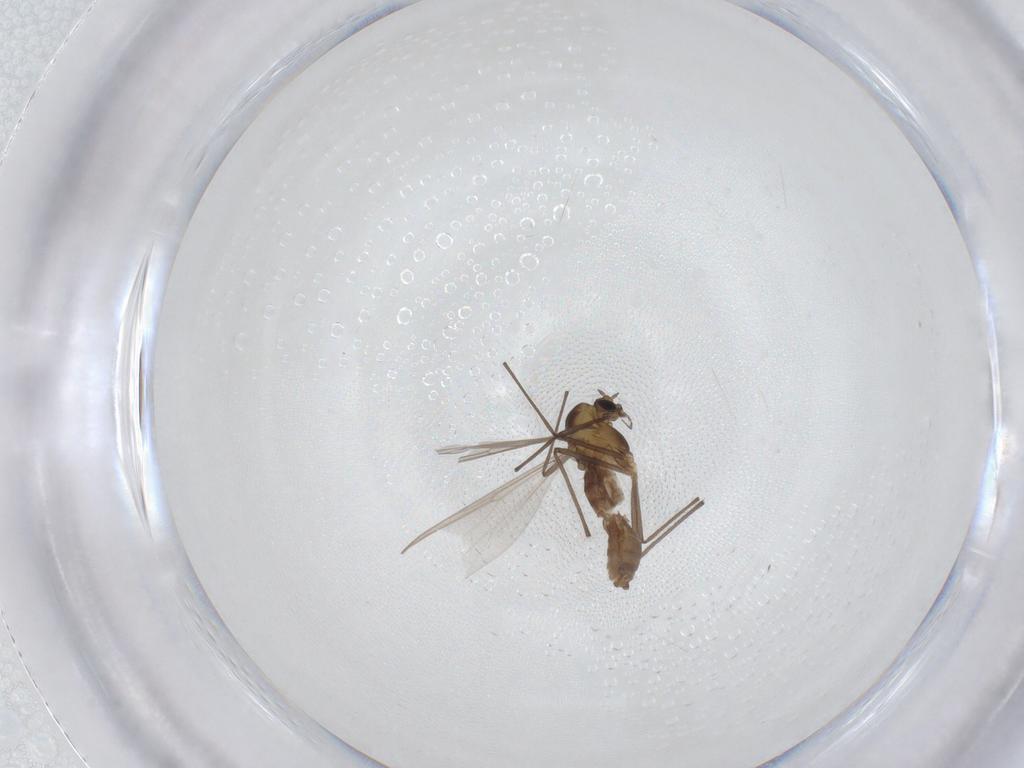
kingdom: Animalia
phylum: Arthropoda
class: Insecta
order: Diptera
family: Chironomidae
